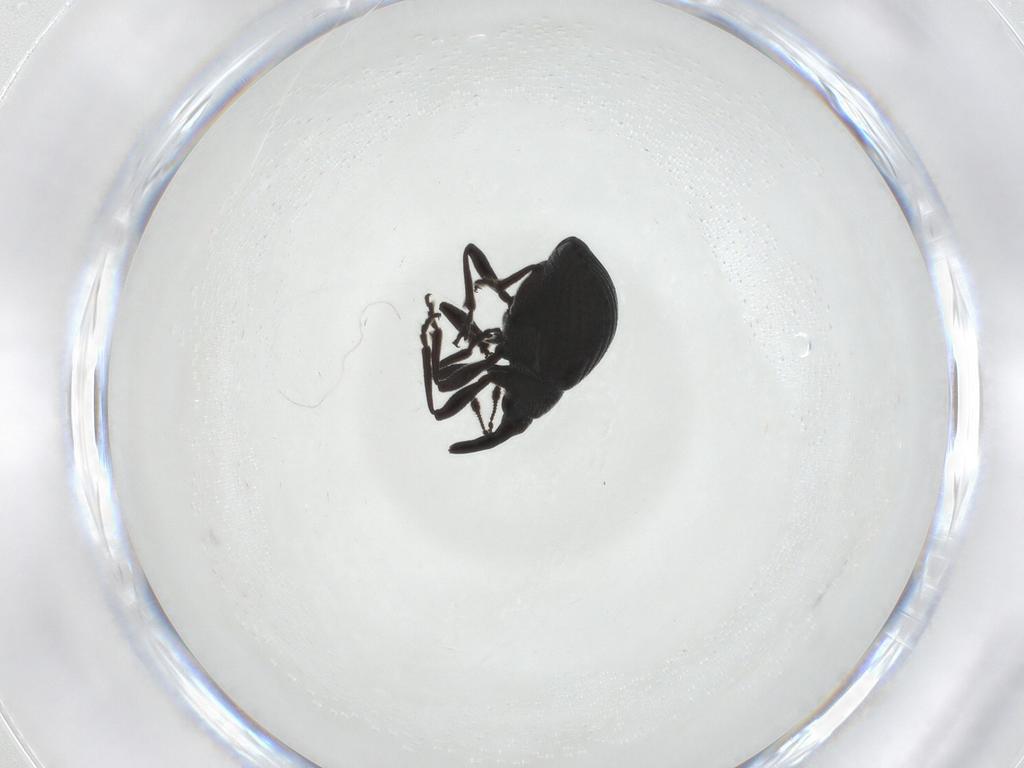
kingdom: Animalia
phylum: Arthropoda
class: Insecta
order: Coleoptera
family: Brentidae
